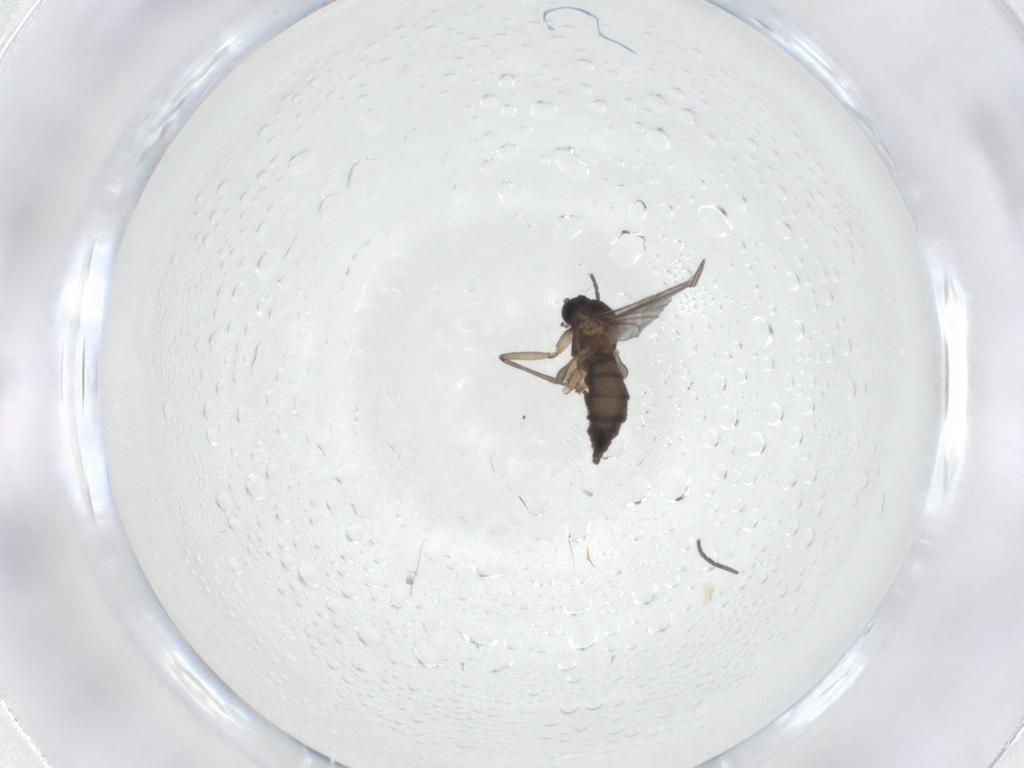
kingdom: Animalia
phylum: Arthropoda
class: Insecta
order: Diptera
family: Sciaridae
